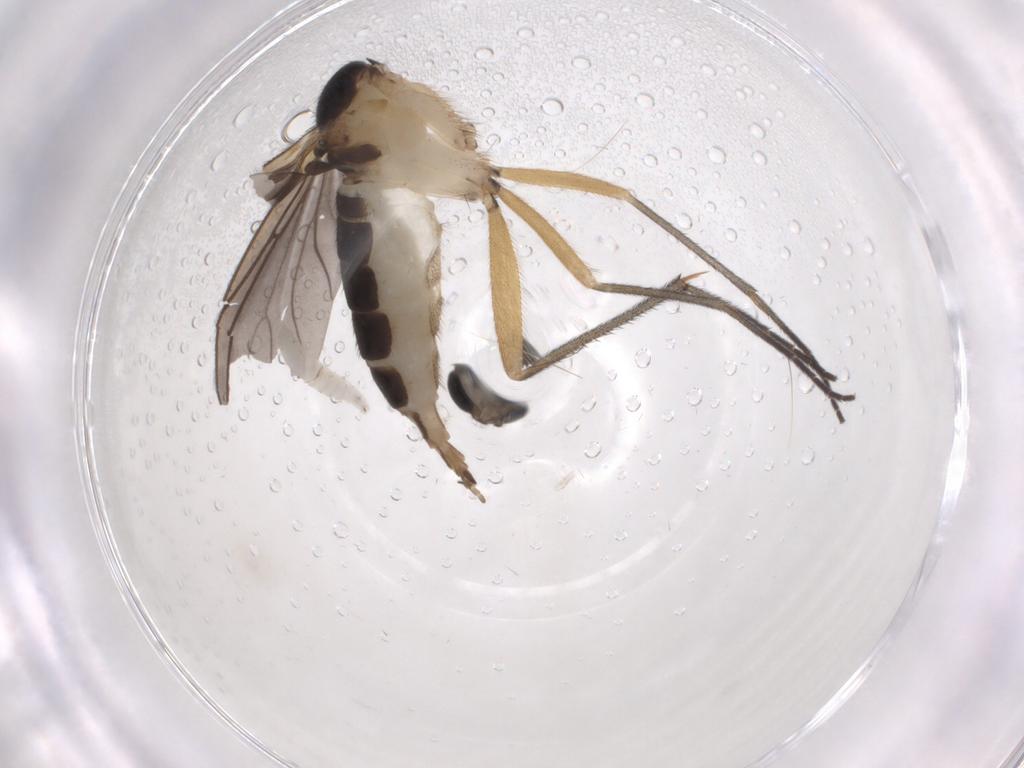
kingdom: Animalia
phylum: Arthropoda
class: Insecta
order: Diptera
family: Sciaridae
